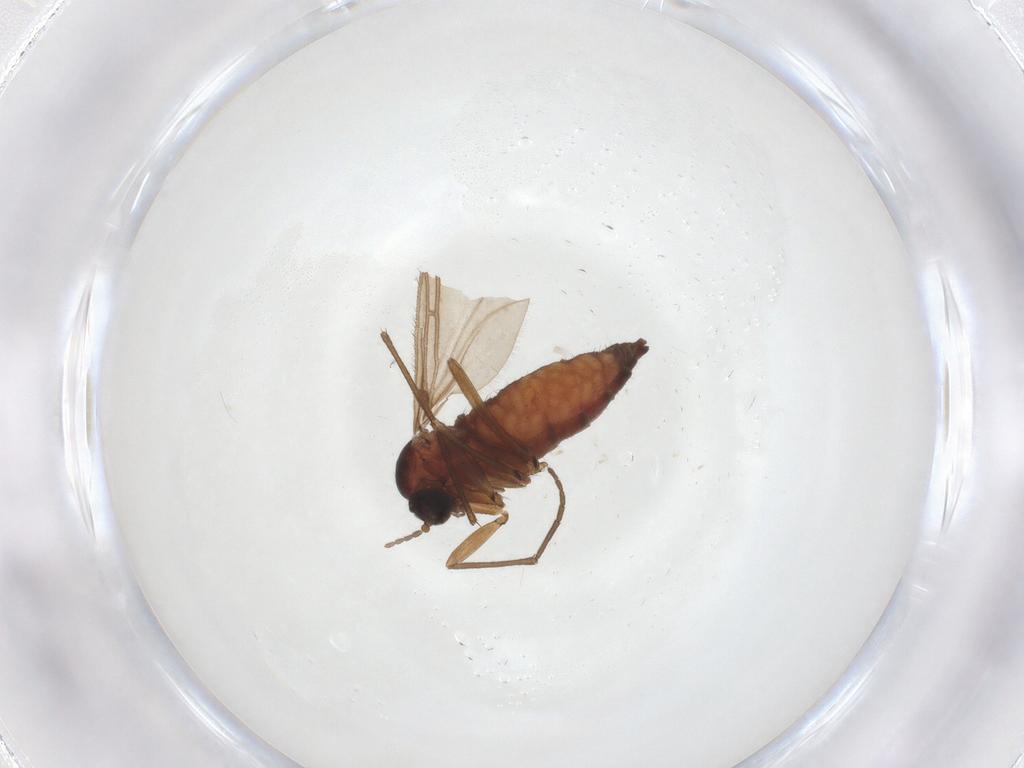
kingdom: Animalia
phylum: Arthropoda
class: Insecta
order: Diptera
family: Sciaridae
